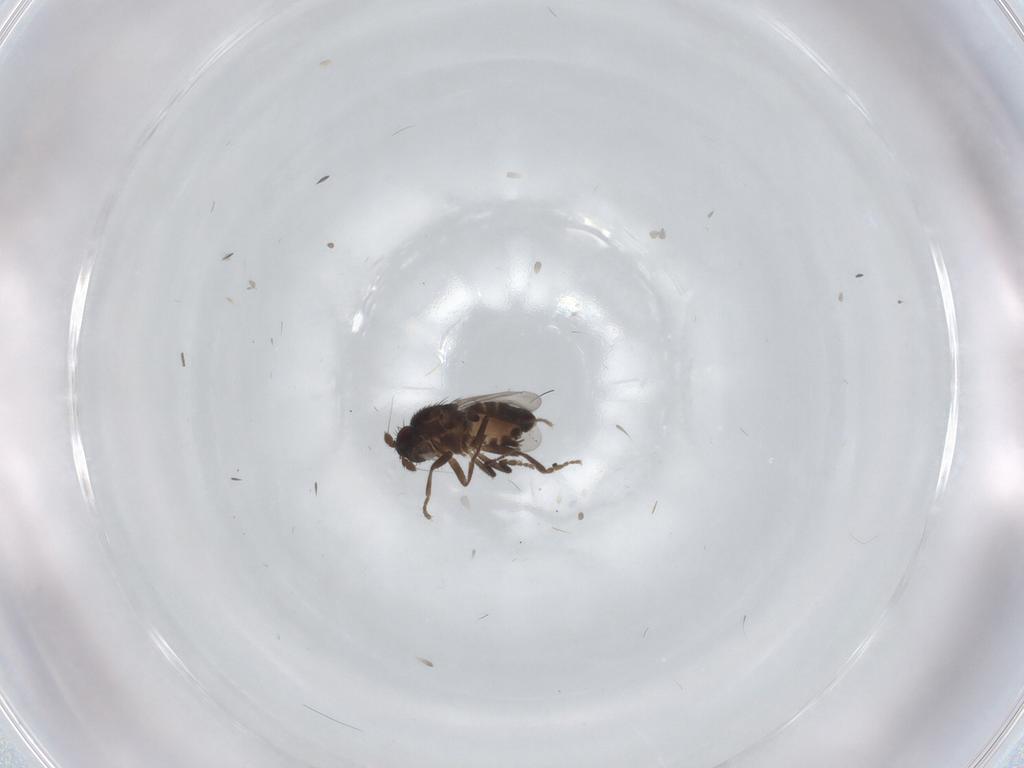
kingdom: Animalia
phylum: Arthropoda
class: Insecta
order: Diptera
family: Sphaeroceridae
